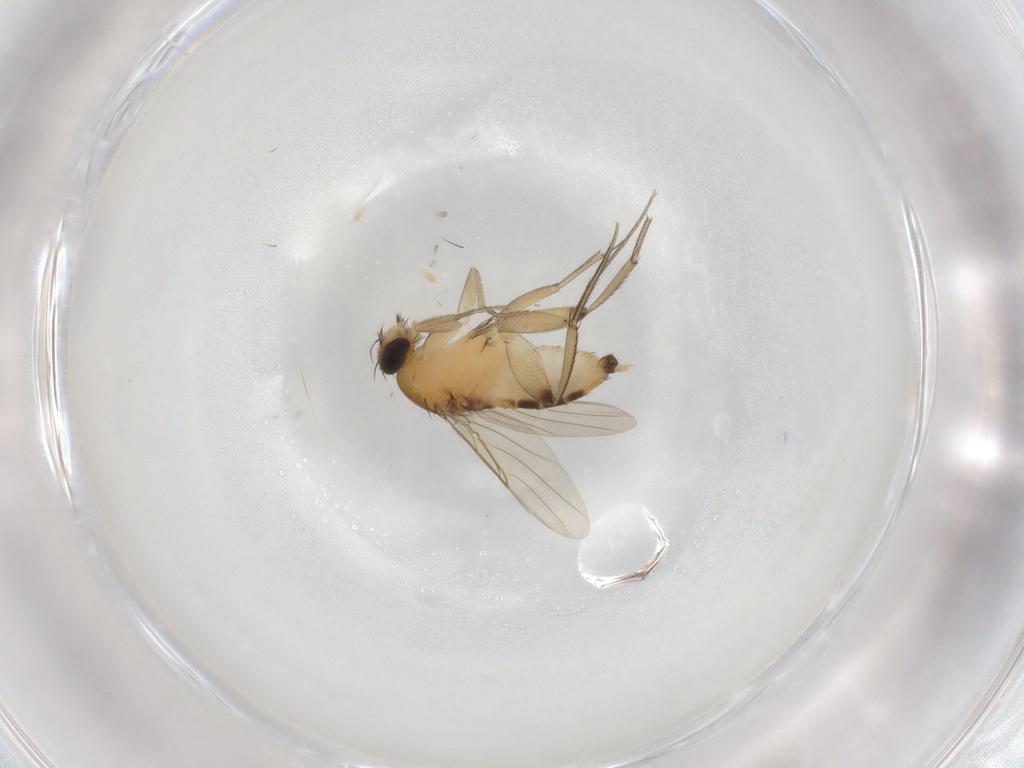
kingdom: Animalia
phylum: Arthropoda
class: Insecta
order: Diptera
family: Phoridae
